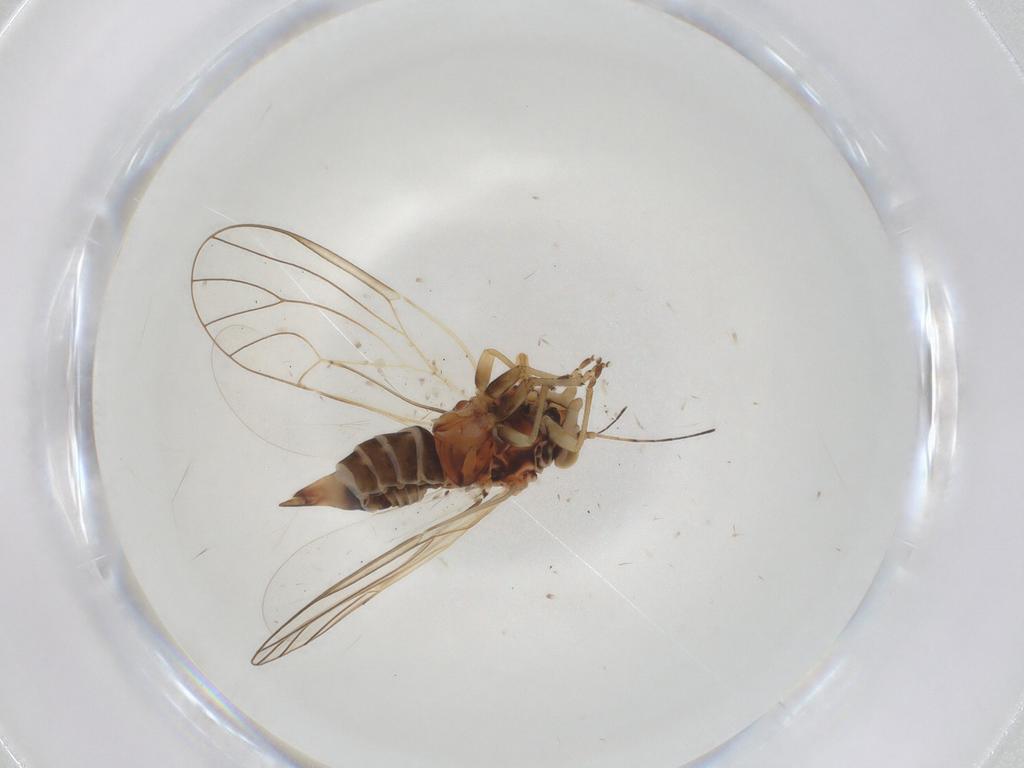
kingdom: Animalia
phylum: Arthropoda
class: Insecta
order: Hemiptera
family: Psyllidae
